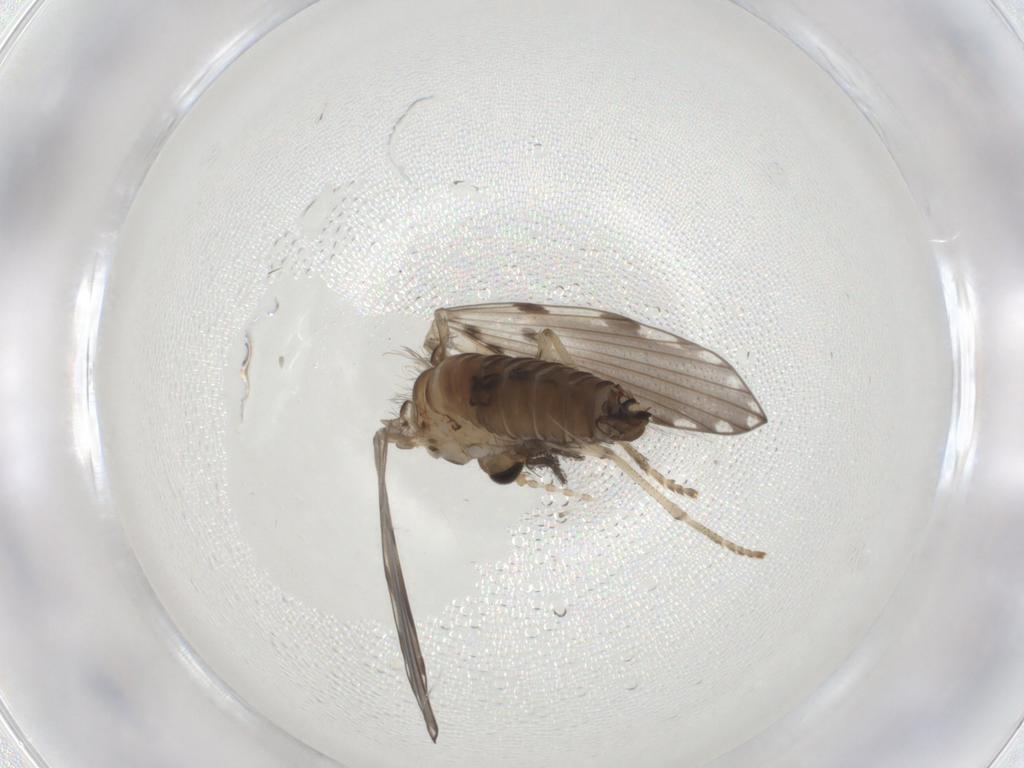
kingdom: Animalia
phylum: Arthropoda
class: Insecta
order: Diptera
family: Psychodidae
